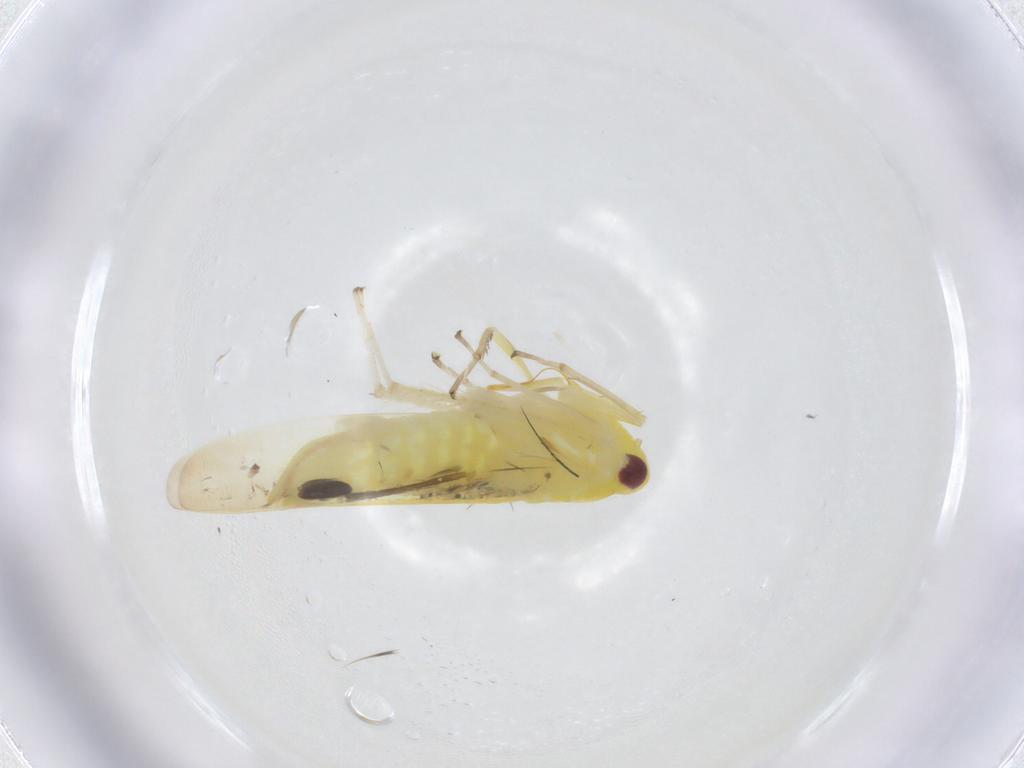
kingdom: Animalia
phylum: Arthropoda
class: Insecta
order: Hemiptera
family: Cicadellidae
